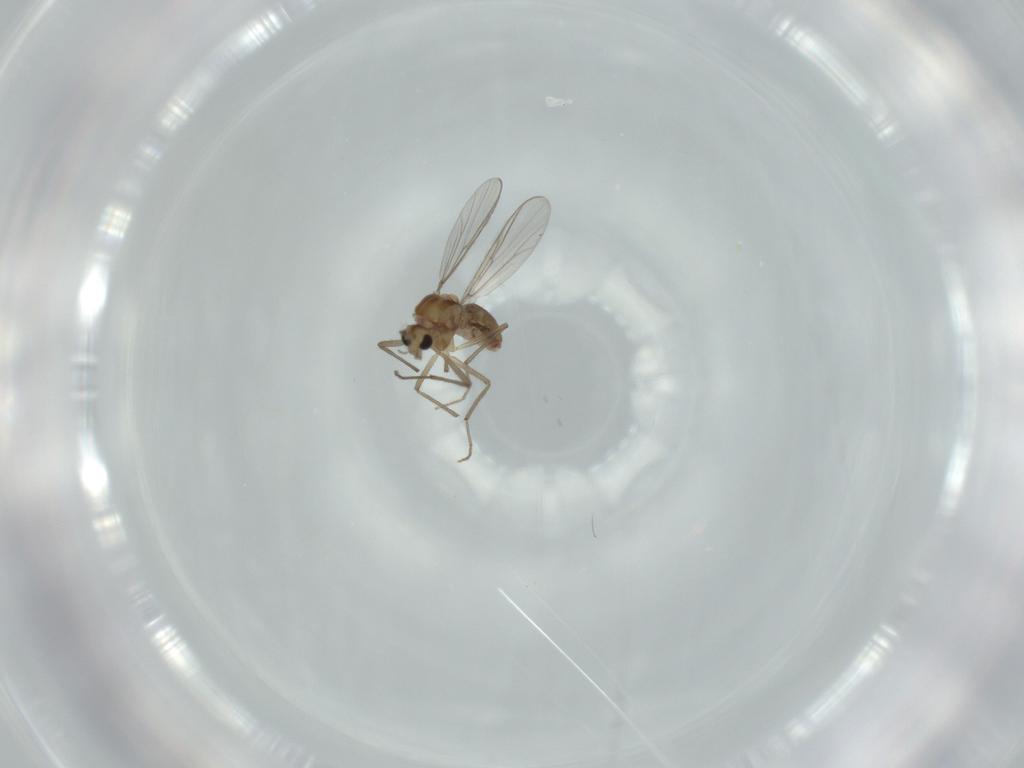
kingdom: Animalia
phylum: Arthropoda
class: Insecta
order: Diptera
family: Chironomidae
